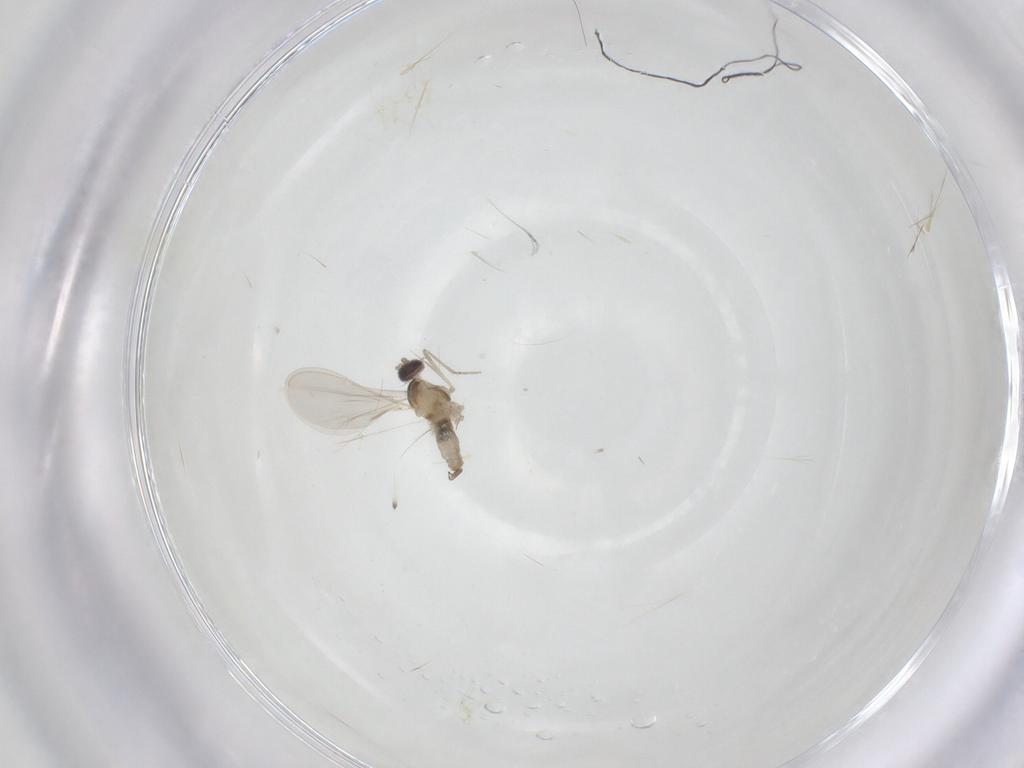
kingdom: Animalia
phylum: Arthropoda
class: Insecta
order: Diptera
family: Cecidomyiidae
